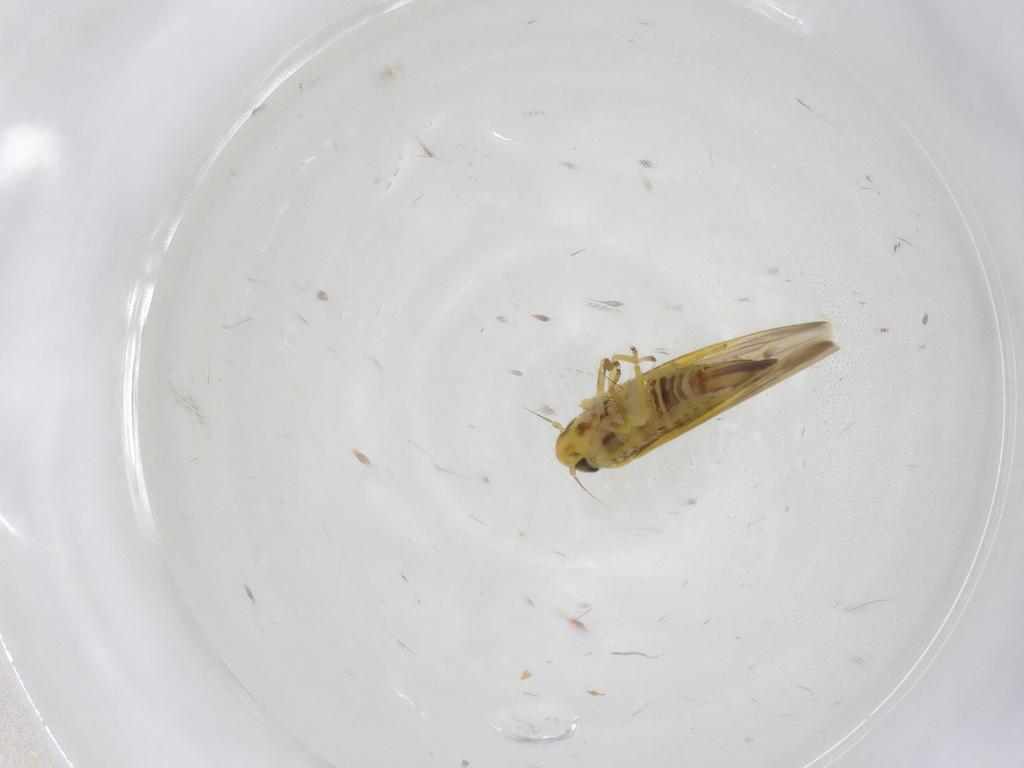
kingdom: Animalia
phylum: Arthropoda
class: Insecta
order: Hemiptera
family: Cicadellidae
